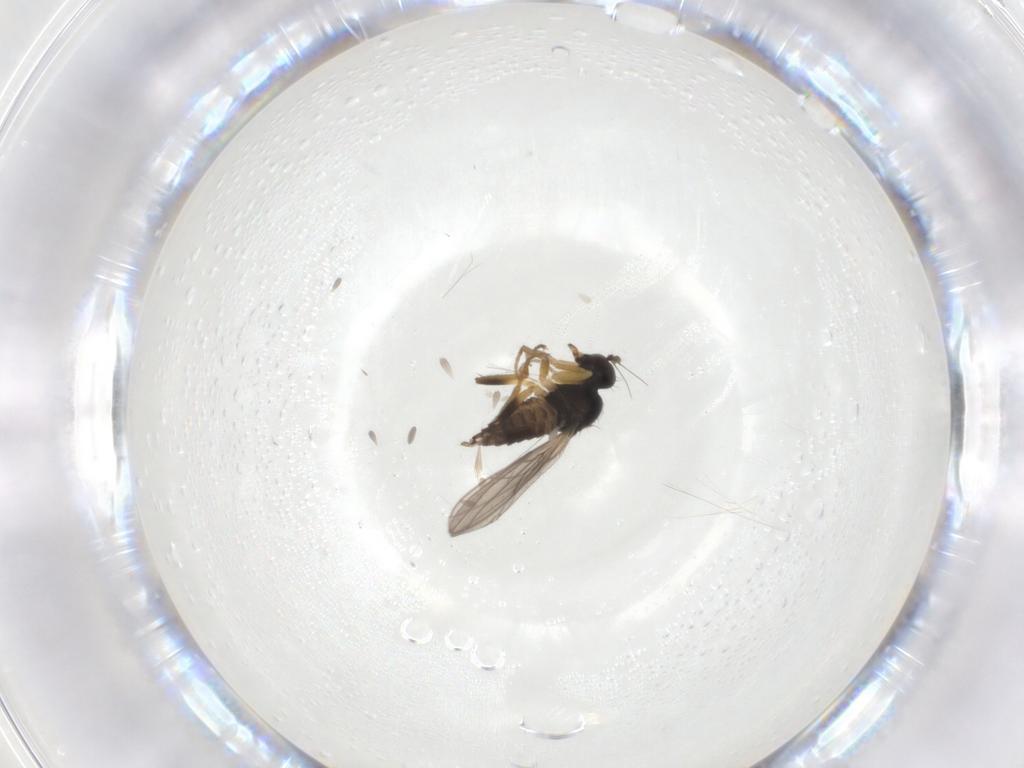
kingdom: Animalia
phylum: Arthropoda
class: Insecta
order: Diptera
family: Hybotidae
